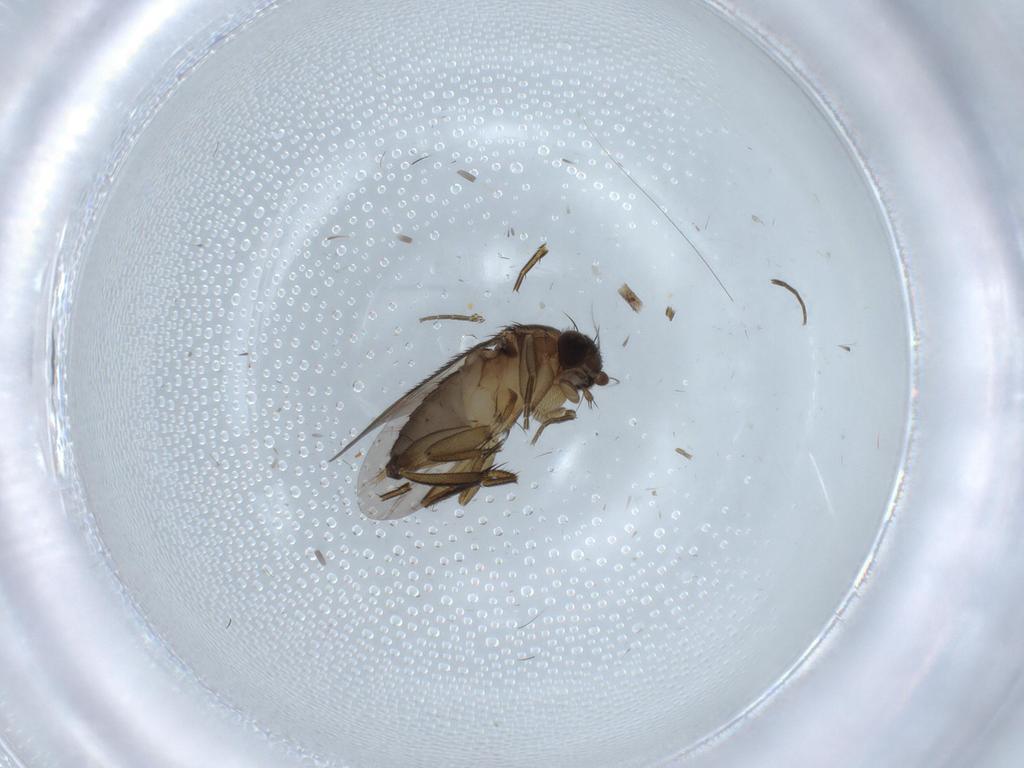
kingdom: Animalia
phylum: Arthropoda
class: Insecta
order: Diptera
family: Phoridae
